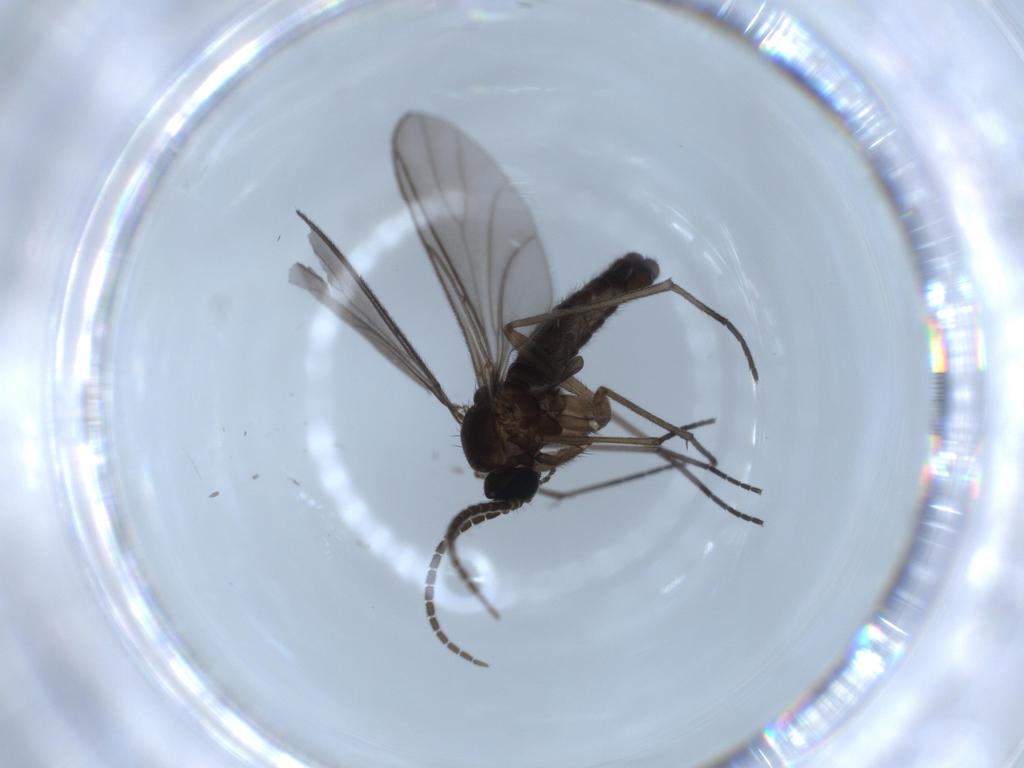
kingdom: Animalia
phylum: Arthropoda
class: Insecta
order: Diptera
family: Sciaridae
